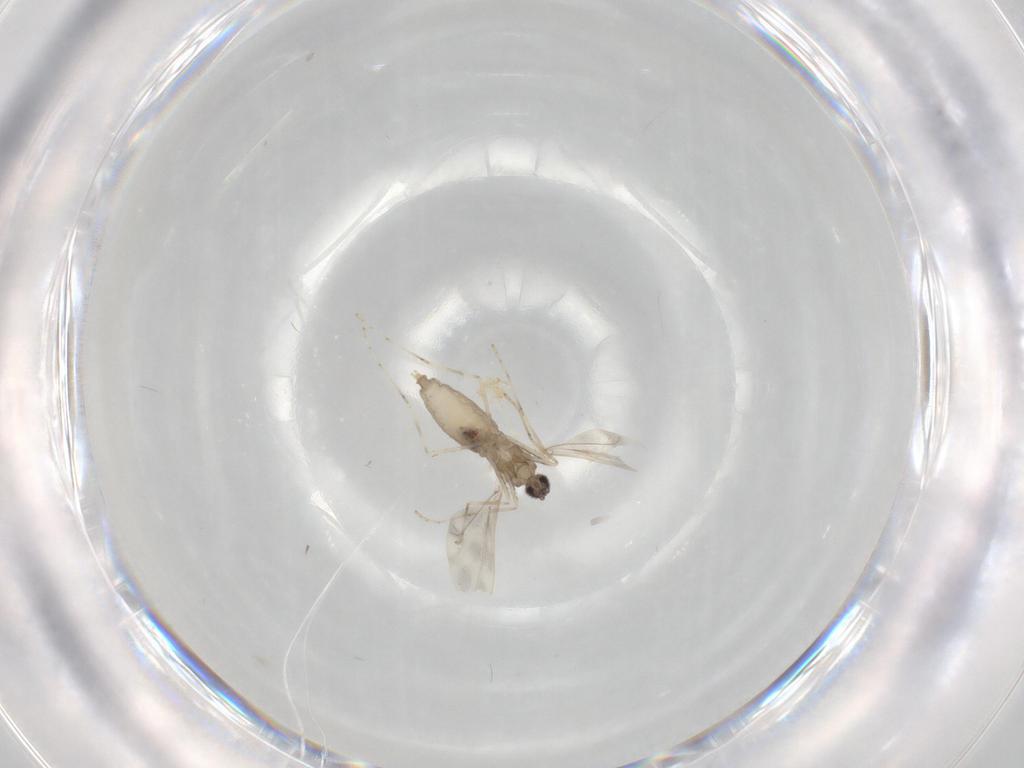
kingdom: Animalia
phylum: Arthropoda
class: Insecta
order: Diptera
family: Cecidomyiidae
